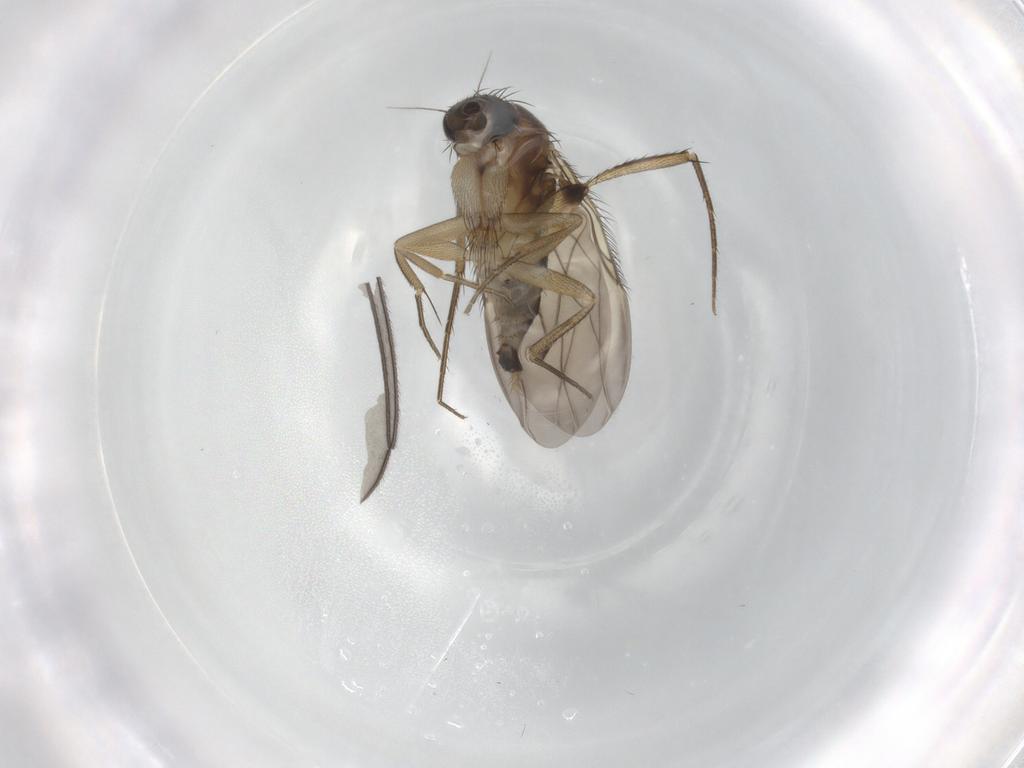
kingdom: Animalia
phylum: Arthropoda
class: Insecta
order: Diptera
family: Phoridae
